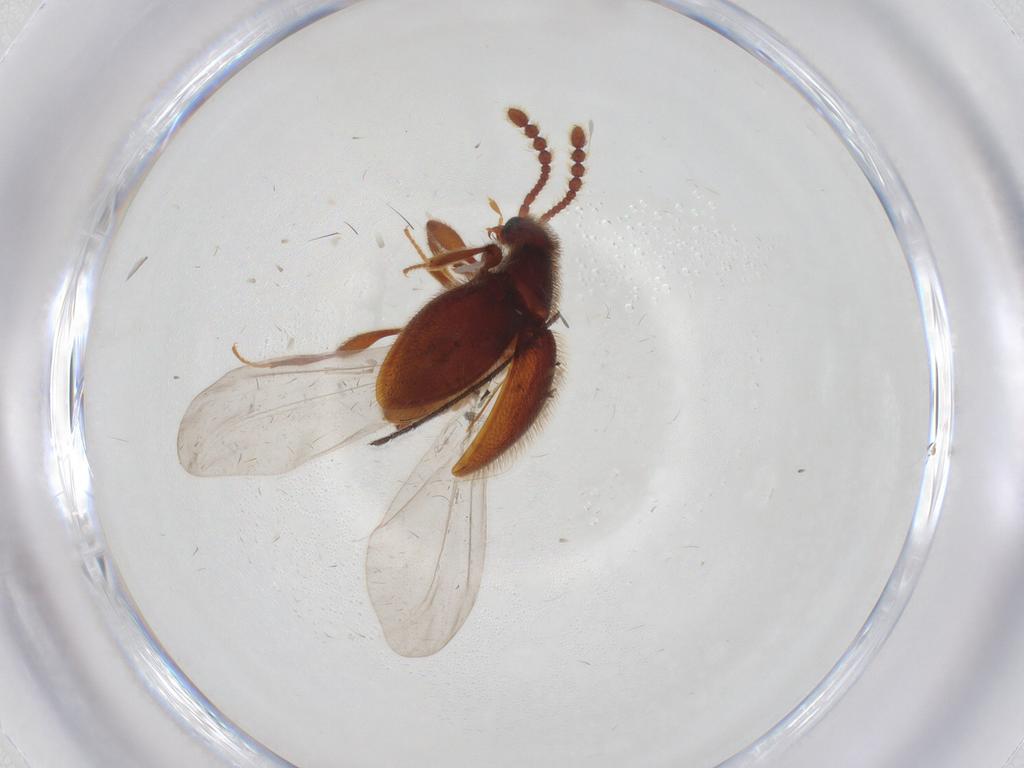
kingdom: Animalia
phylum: Arthropoda
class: Insecta
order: Coleoptera
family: Staphylinidae
